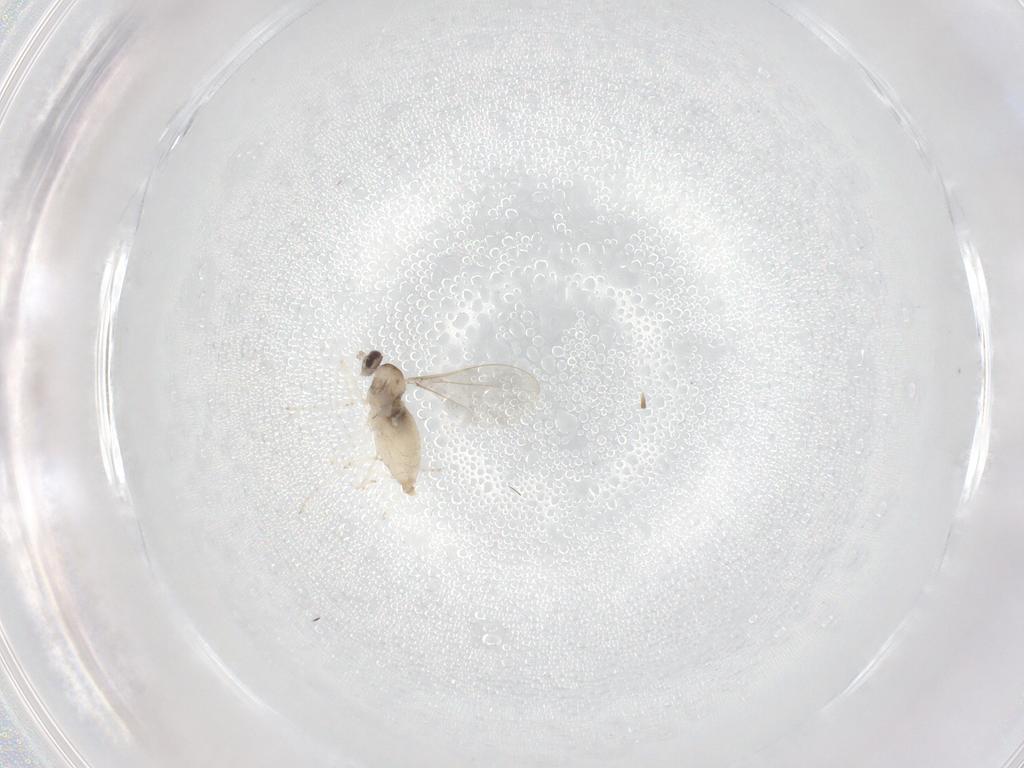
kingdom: Animalia
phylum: Arthropoda
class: Insecta
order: Diptera
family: Cecidomyiidae
